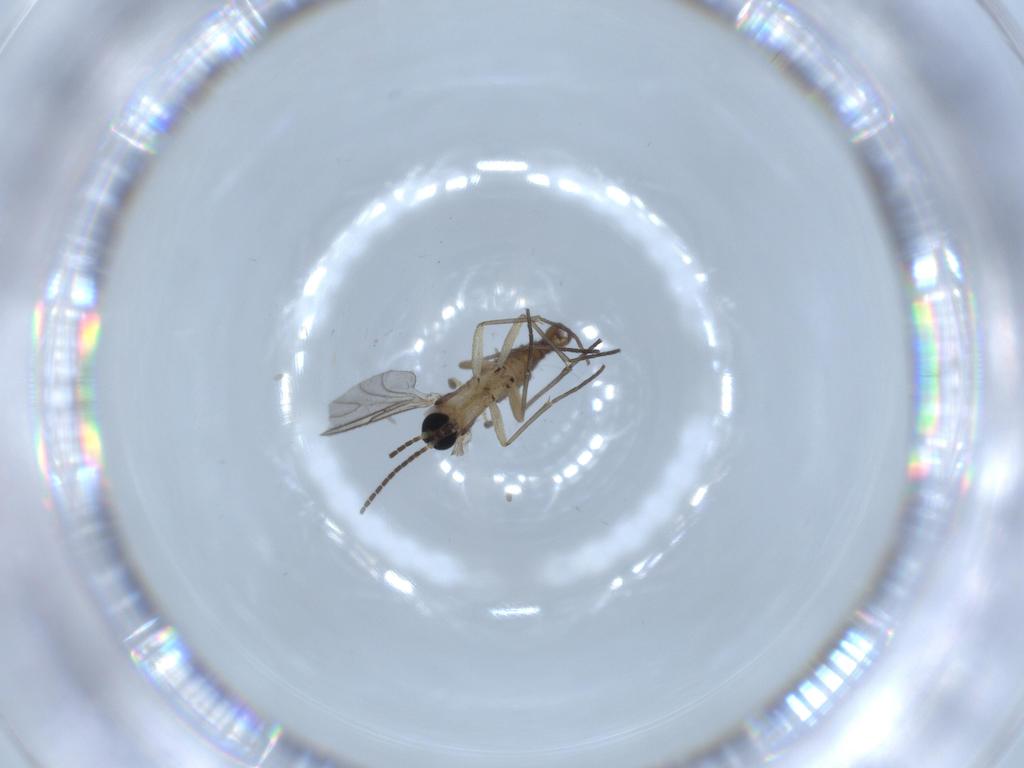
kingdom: Animalia
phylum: Arthropoda
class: Insecta
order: Diptera
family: Sciaridae
